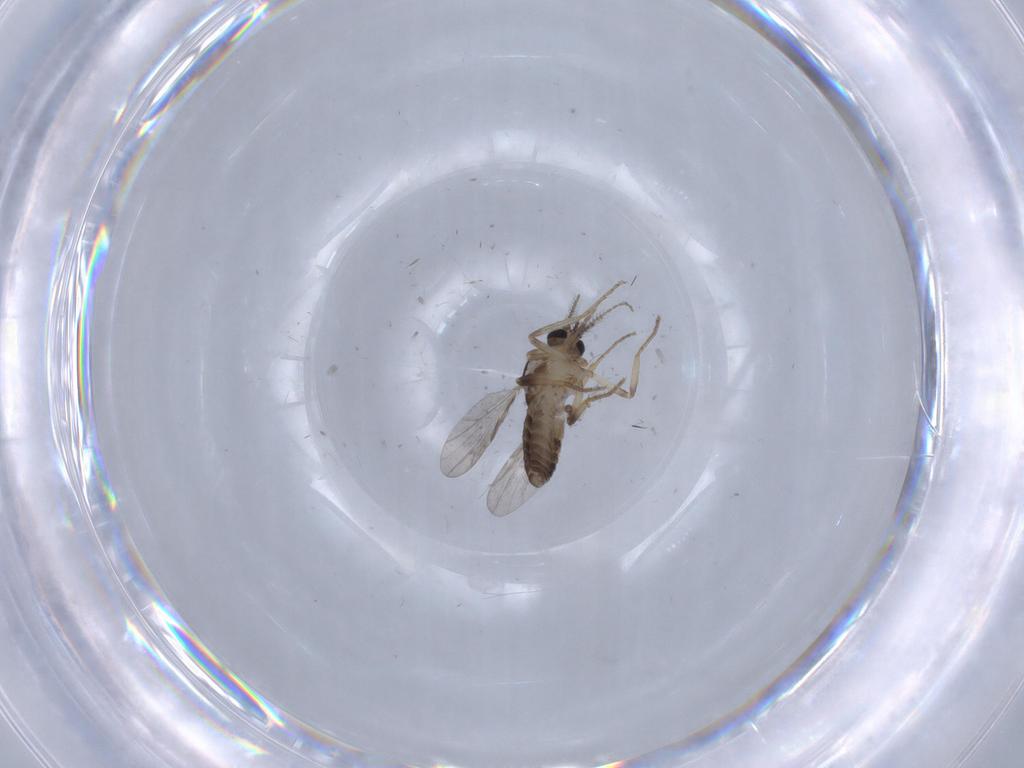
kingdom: Animalia
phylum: Arthropoda
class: Insecta
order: Diptera
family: Ceratopogonidae
